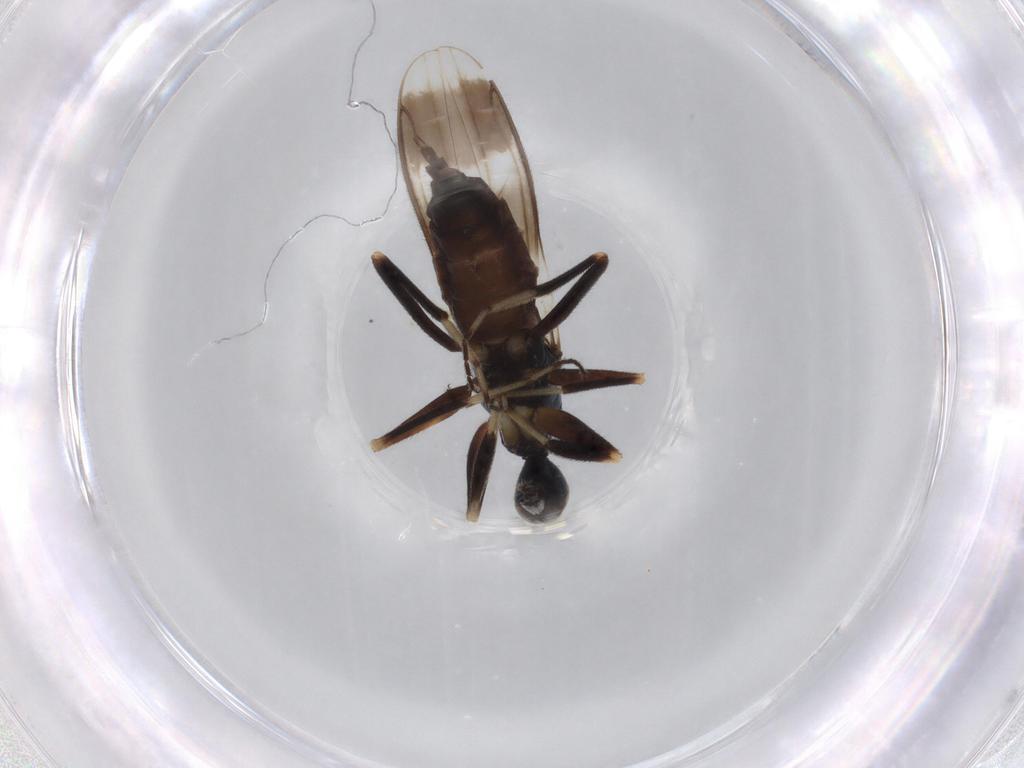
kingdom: Animalia
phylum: Arthropoda
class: Insecta
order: Diptera
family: Hybotidae
